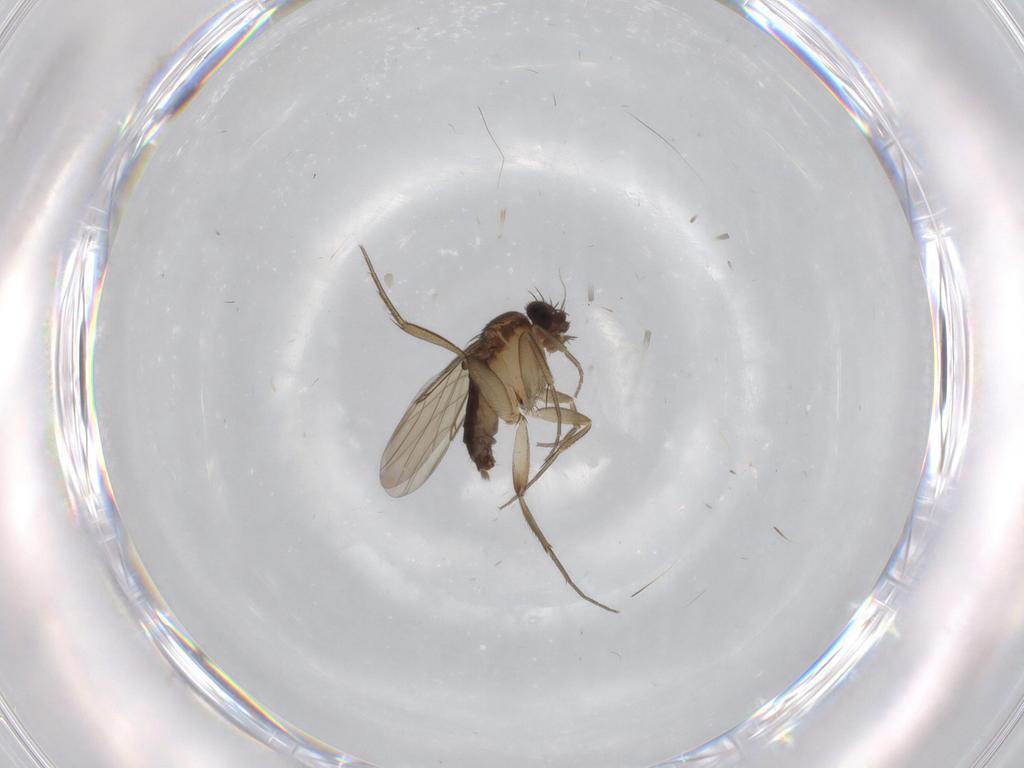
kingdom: Animalia
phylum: Arthropoda
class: Insecta
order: Diptera
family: Phoridae
